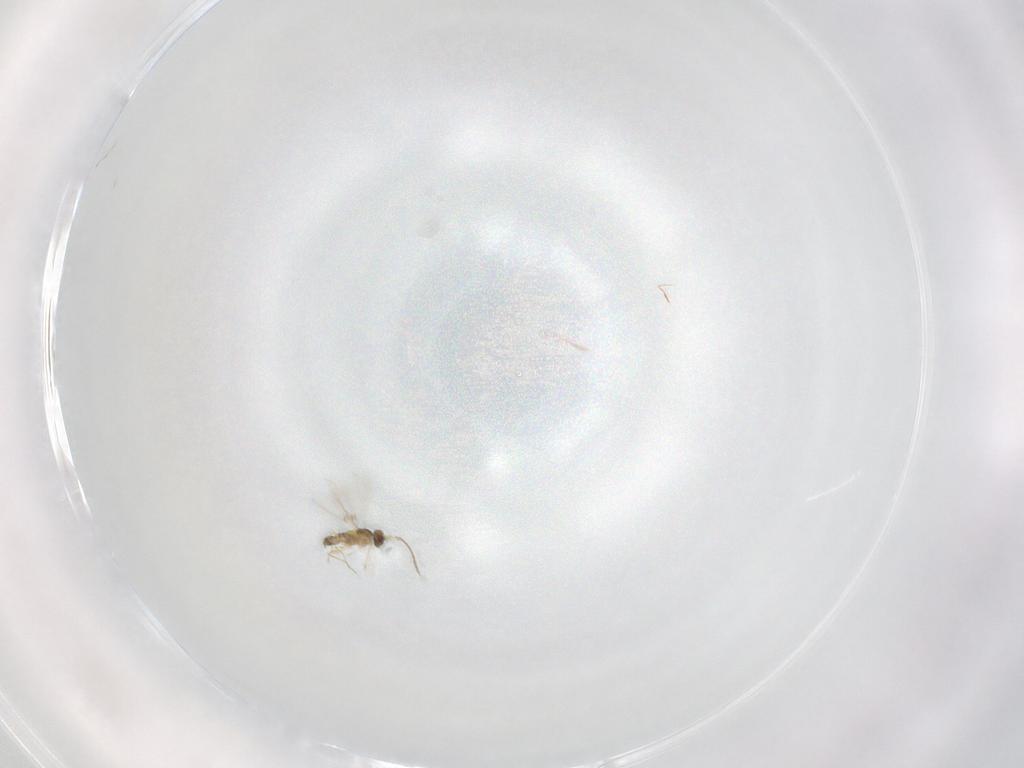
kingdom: Animalia
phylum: Arthropoda
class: Insecta
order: Hymenoptera
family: Mymaridae
